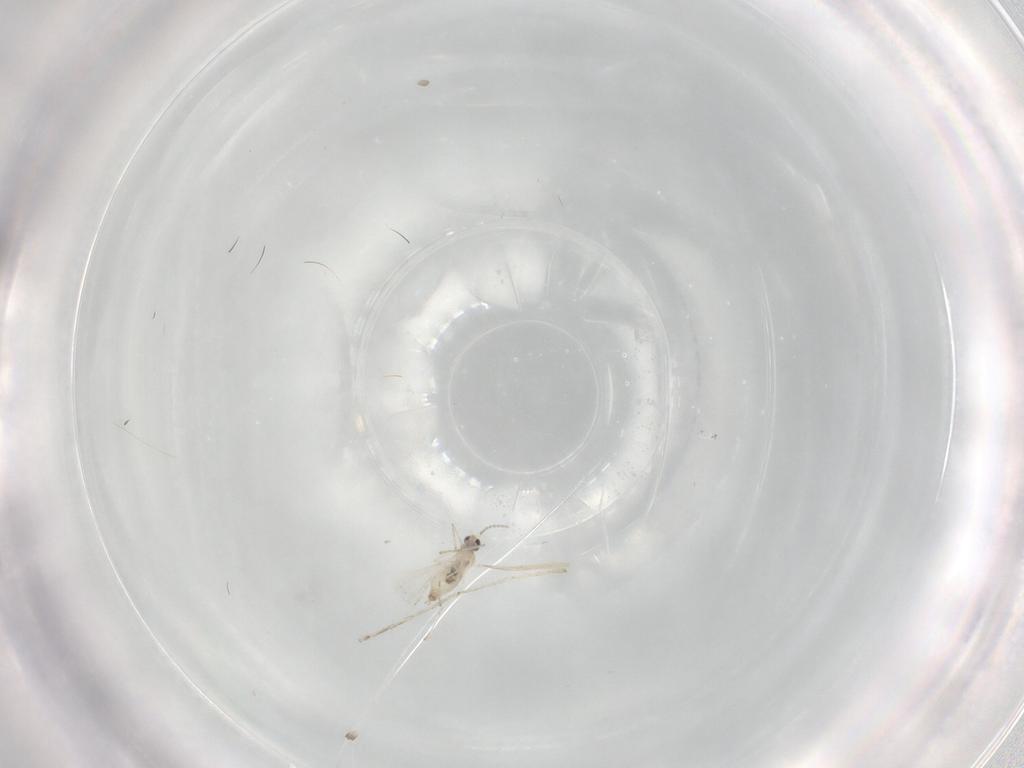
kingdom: Animalia
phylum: Arthropoda
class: Insecta
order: Diptera
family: Cecidomyiidae
